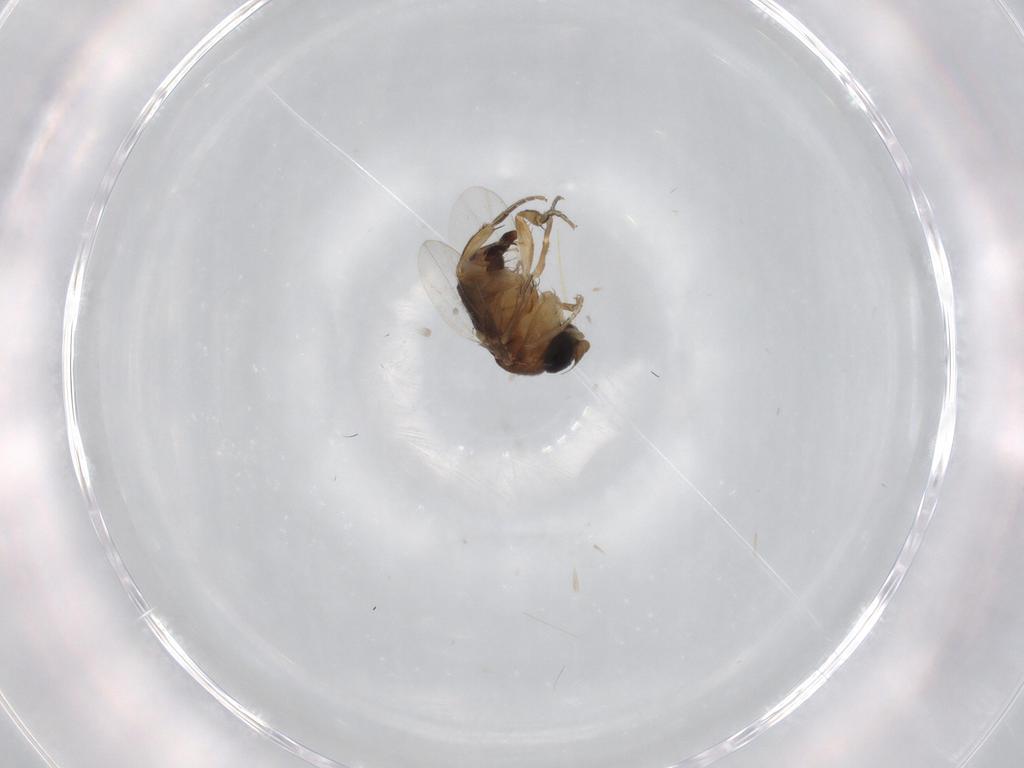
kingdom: Animalia
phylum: Arthropoda
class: Insecta
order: Diptera
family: Phoridae
